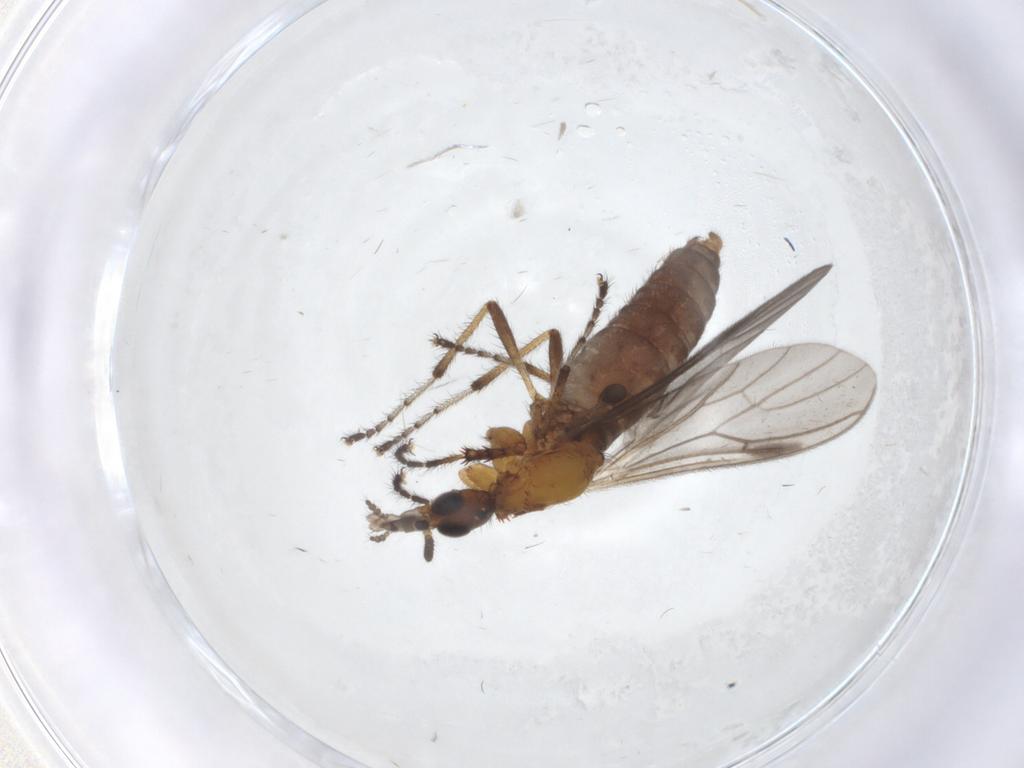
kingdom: Animalia
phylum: Arthropoda
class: Insecta
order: Diptera
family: Bibionidae
